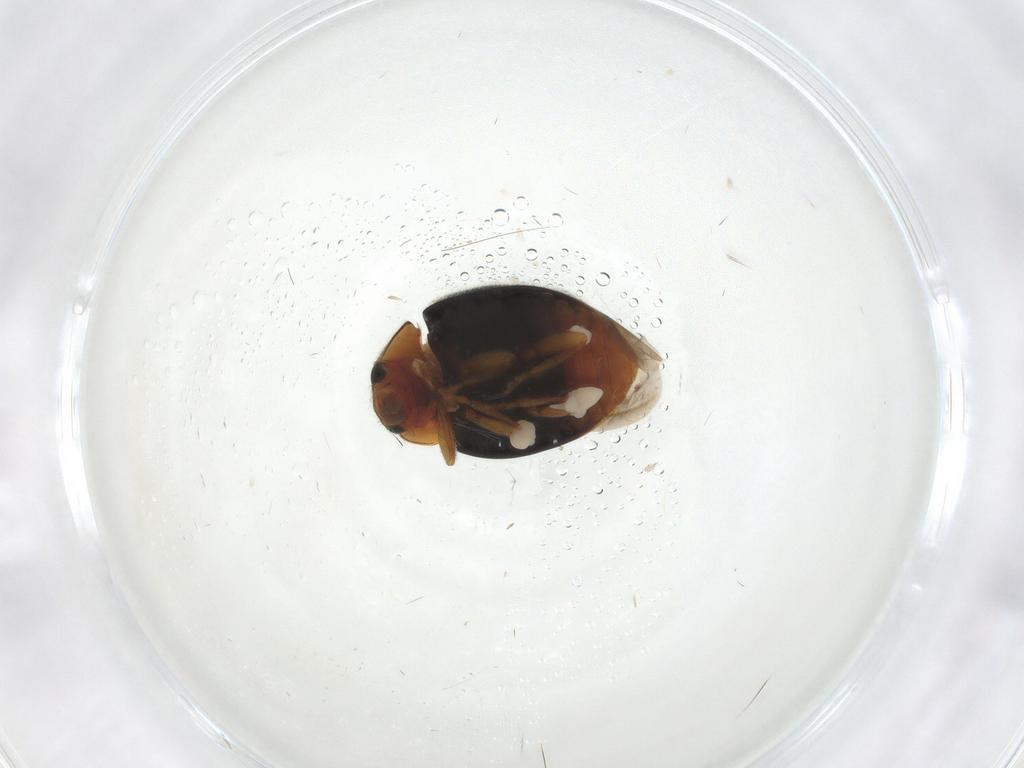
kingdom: Animalia
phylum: Arthropoda
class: Insecta
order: Coleoptera
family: Coccinellidae
